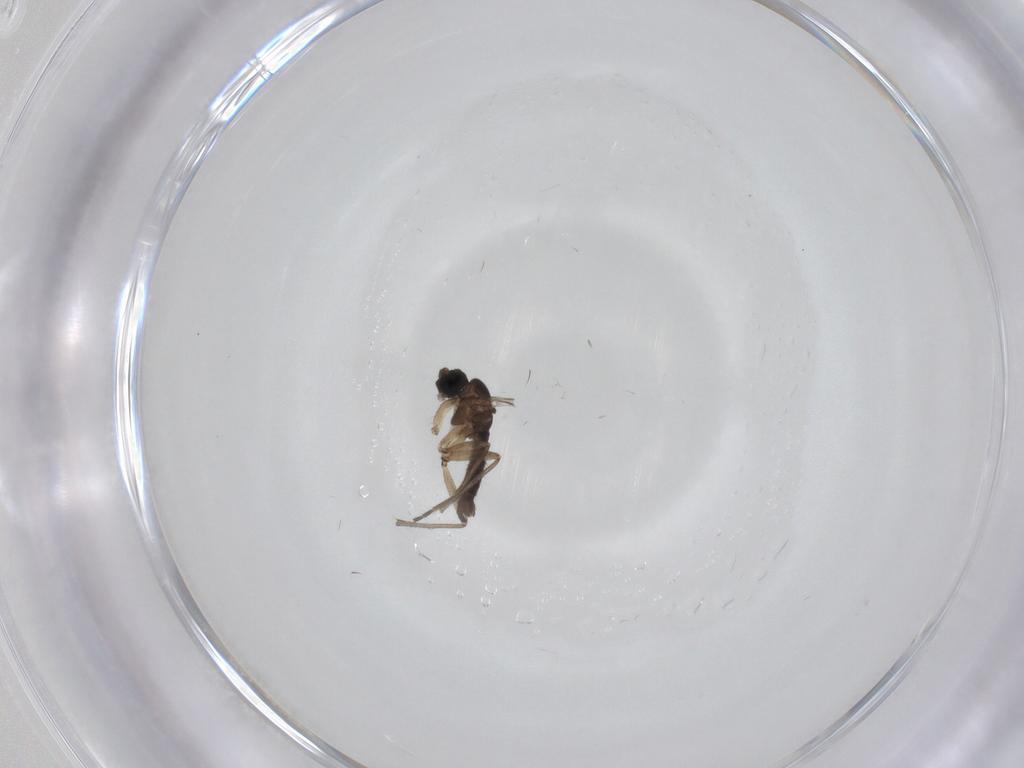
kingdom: Animalia
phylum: Arthropoda
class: Insecta
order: Diptera
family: Sciaridae
